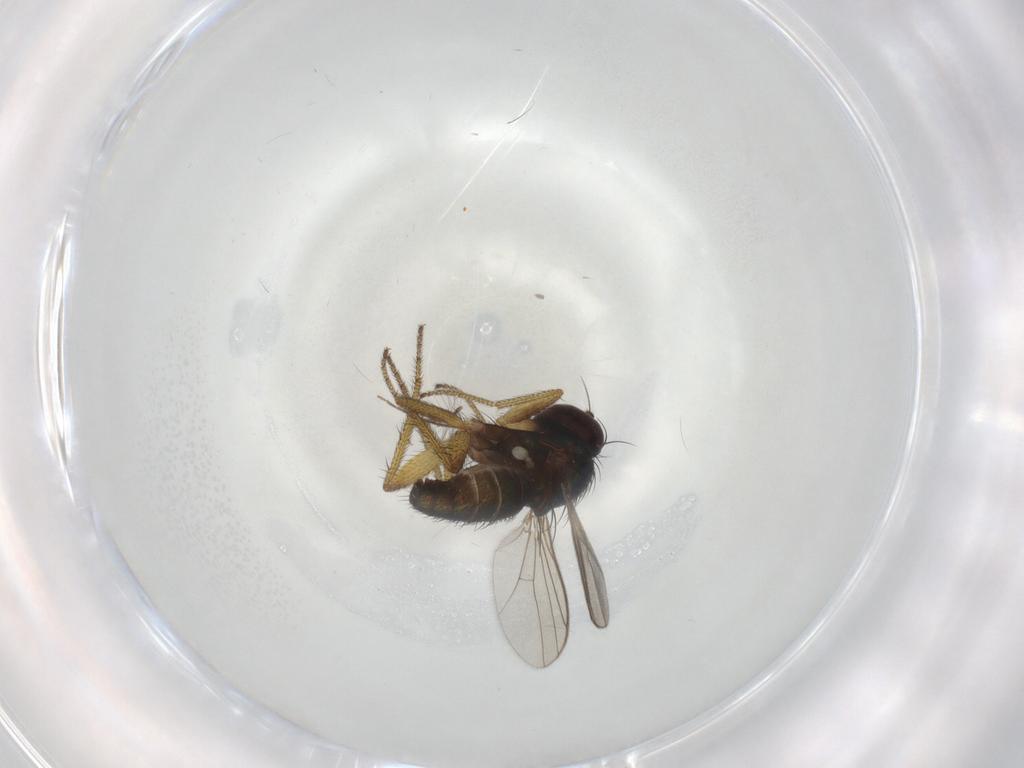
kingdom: Animalia
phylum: Arthropoda
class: Insecta
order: Diptera
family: Dolichopodidae
